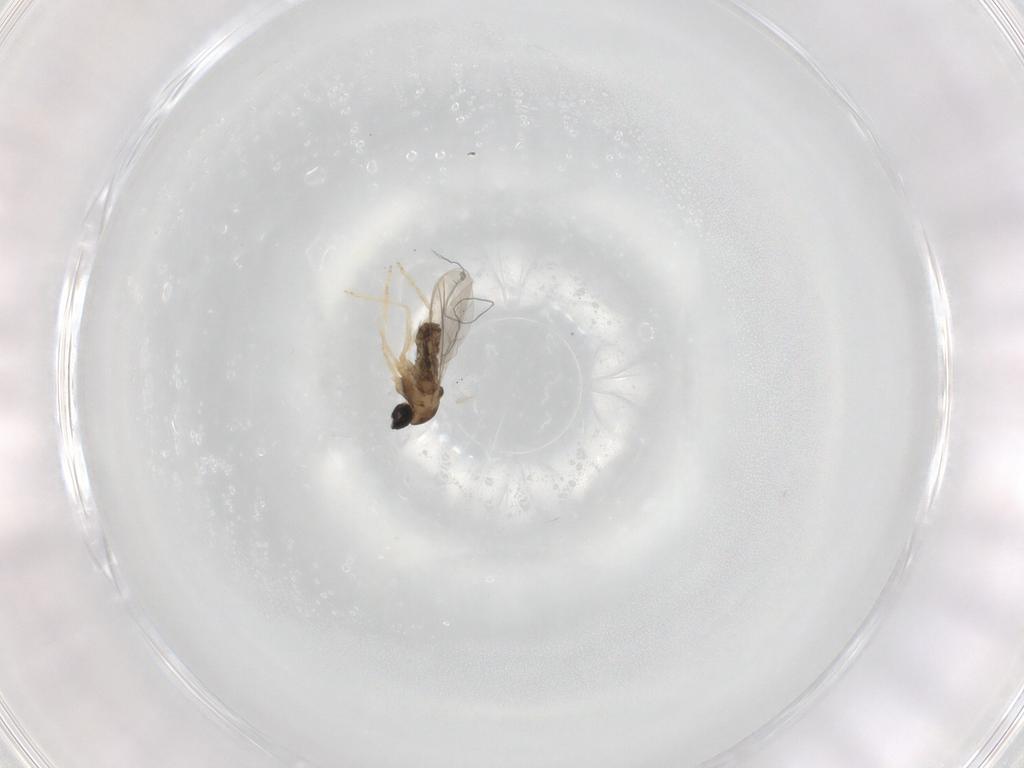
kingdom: Animalia
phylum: Arthropoda
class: Insecta
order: Diptera
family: Cecidomyiidae
